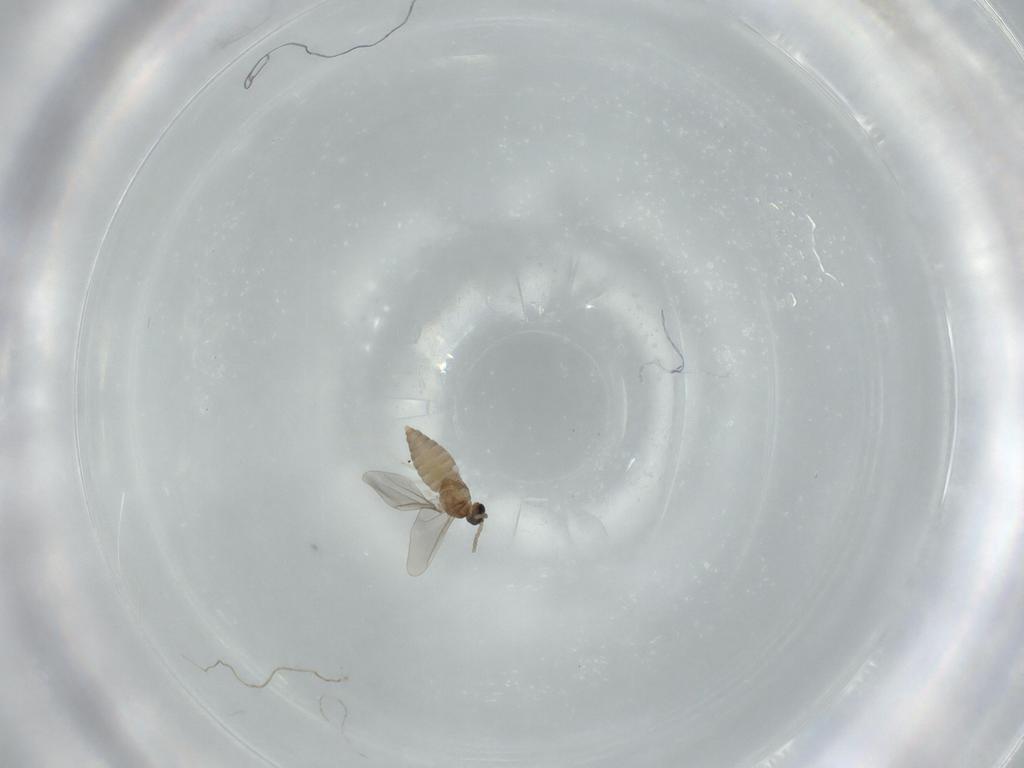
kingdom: Animalia
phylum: Arthropoda
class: Insecta
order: Diptera
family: Cecidomyiidae
